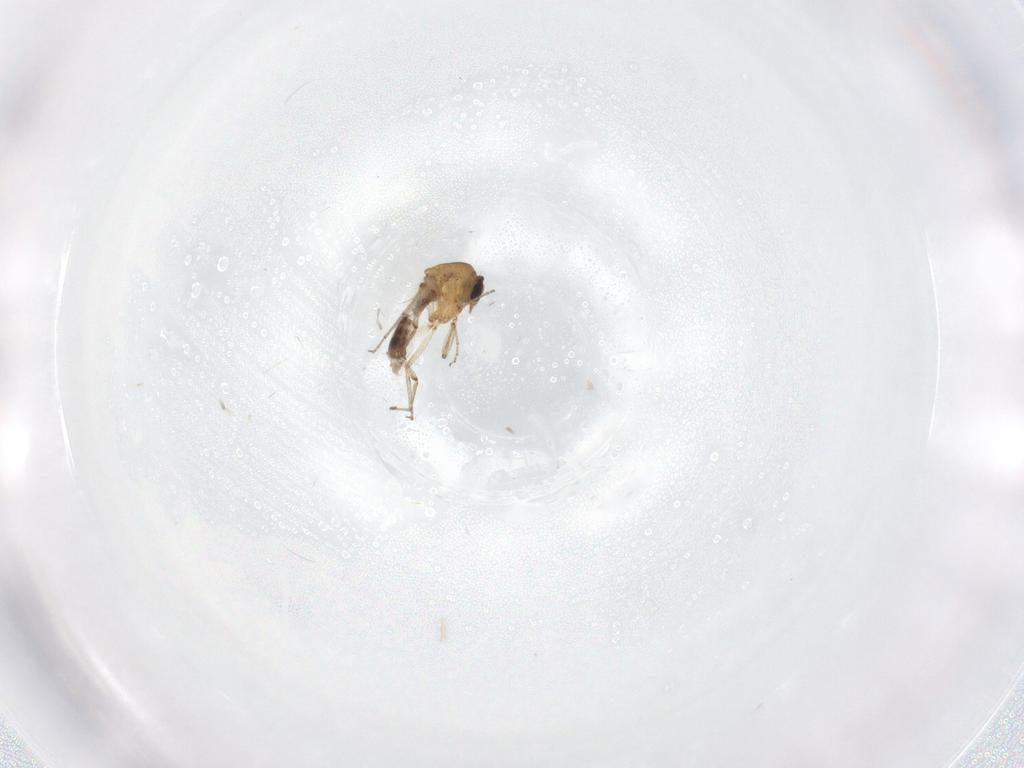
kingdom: Animalia
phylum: Arthropoda
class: Insecta
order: Diptera
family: Ceratopogonidae
